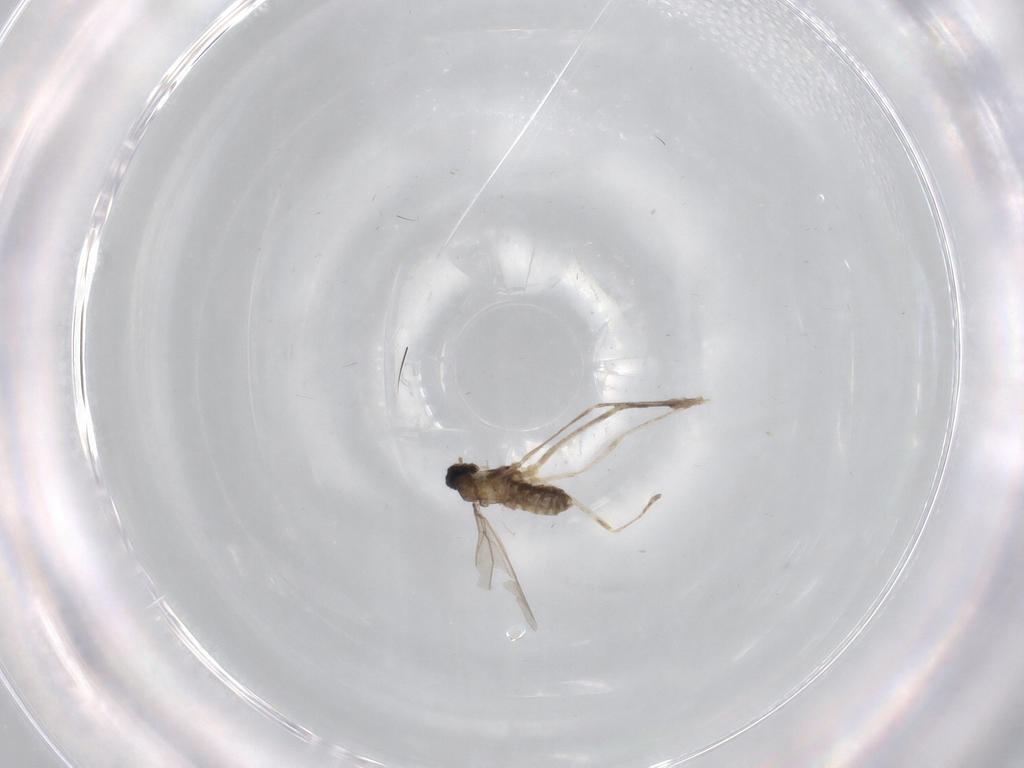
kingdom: Animalia
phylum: Arthropoda
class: Insecta
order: Diptera
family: Cecidomyiidae
